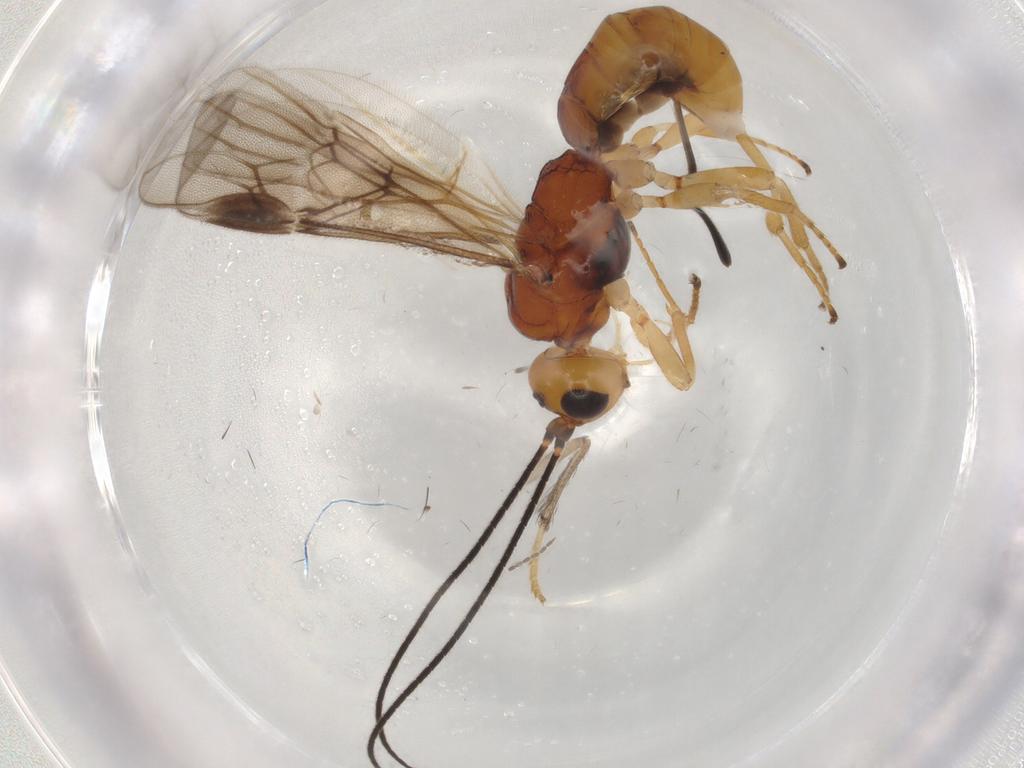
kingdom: Animalia
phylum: Arthropoda
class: Insecta
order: Hymenoptera
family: Braconidae
